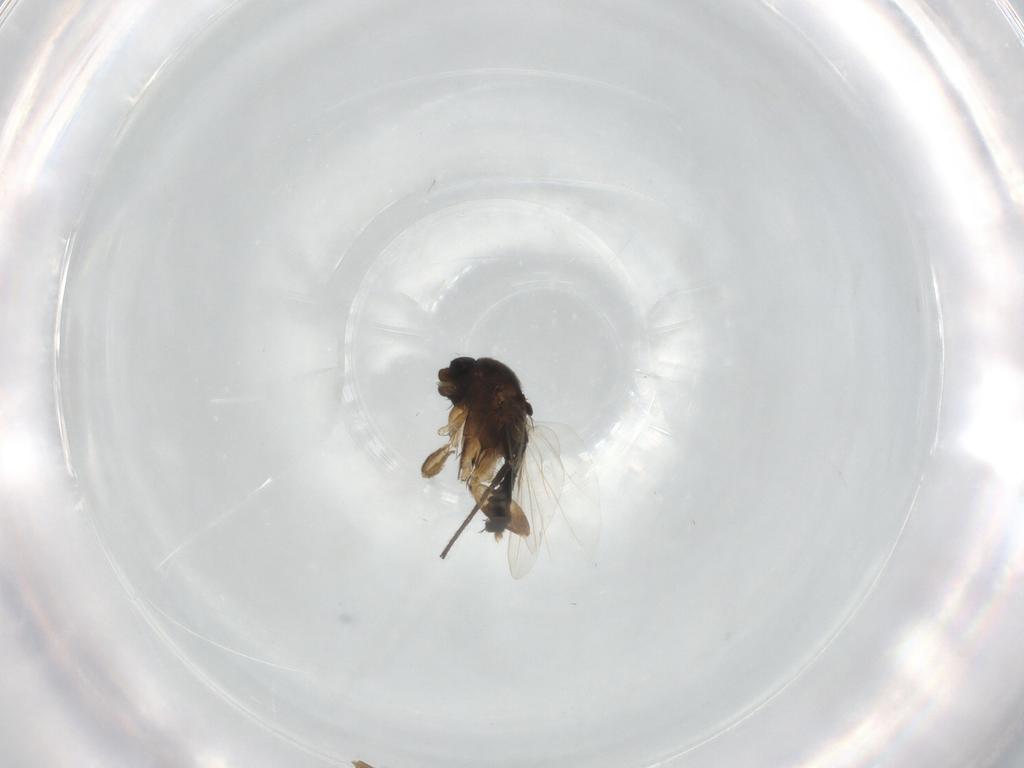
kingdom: Animalia
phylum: Arthropoda
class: Insecta
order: Diptera
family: Phoridae
